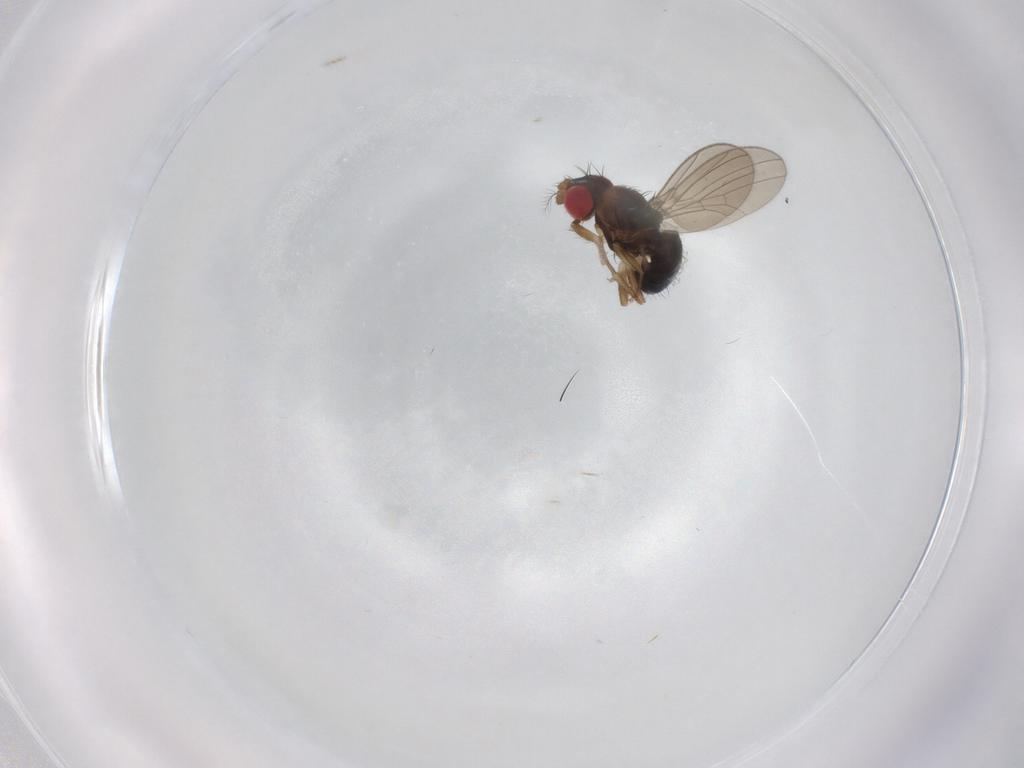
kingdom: Animalia
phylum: Arthropoda
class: Insecta
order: Diptera
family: Drosophilidae
